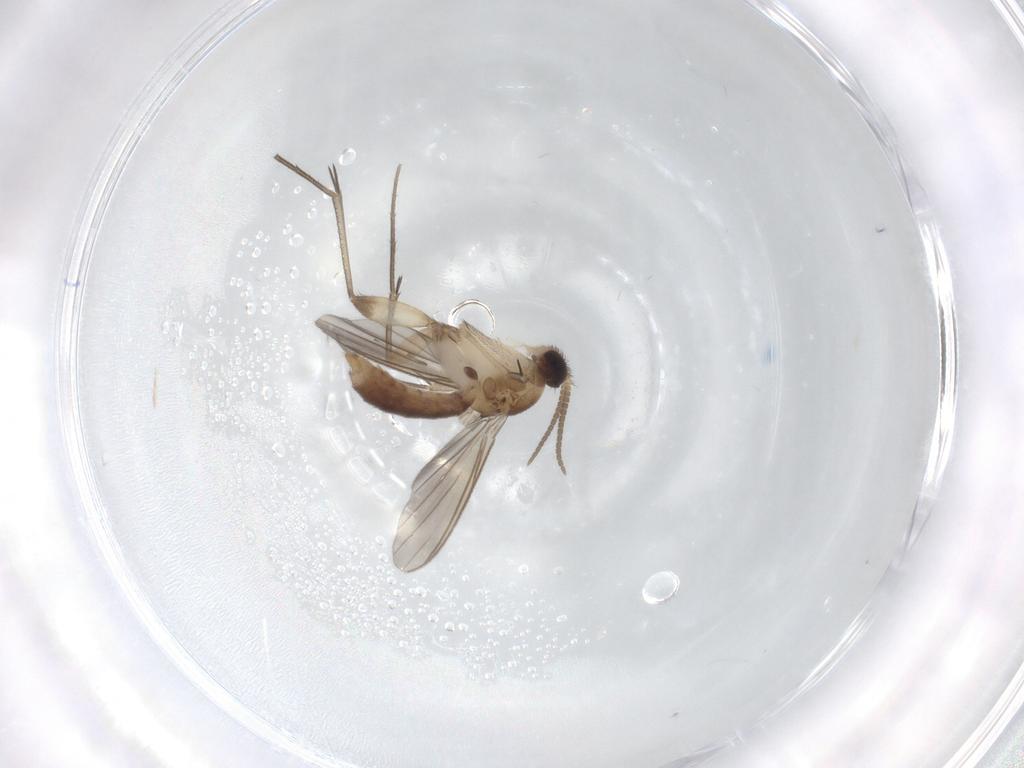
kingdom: Animalia
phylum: Arthropoda
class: Insecta
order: Diptera
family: Mycetophilidae
